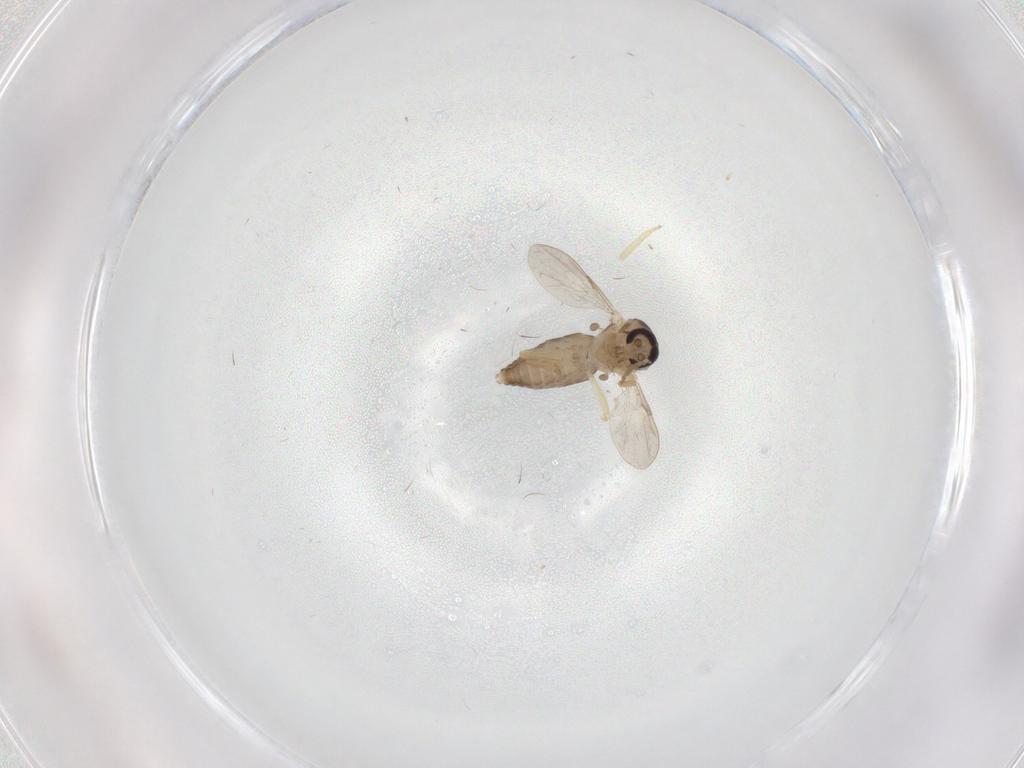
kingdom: Animalia
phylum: Arthropoda
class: Insecta
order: Diptera
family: Ceratopogonidae
